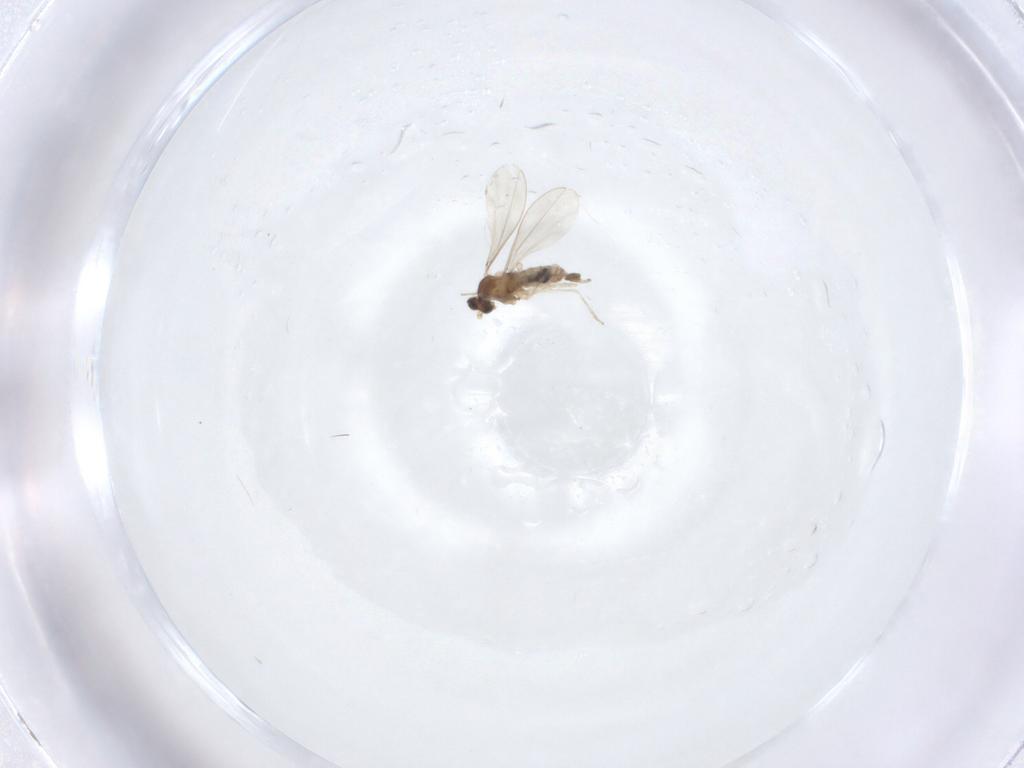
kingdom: Animalia
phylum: Arthropoda
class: Insecta
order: Diptera
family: Cecidomyiidae
